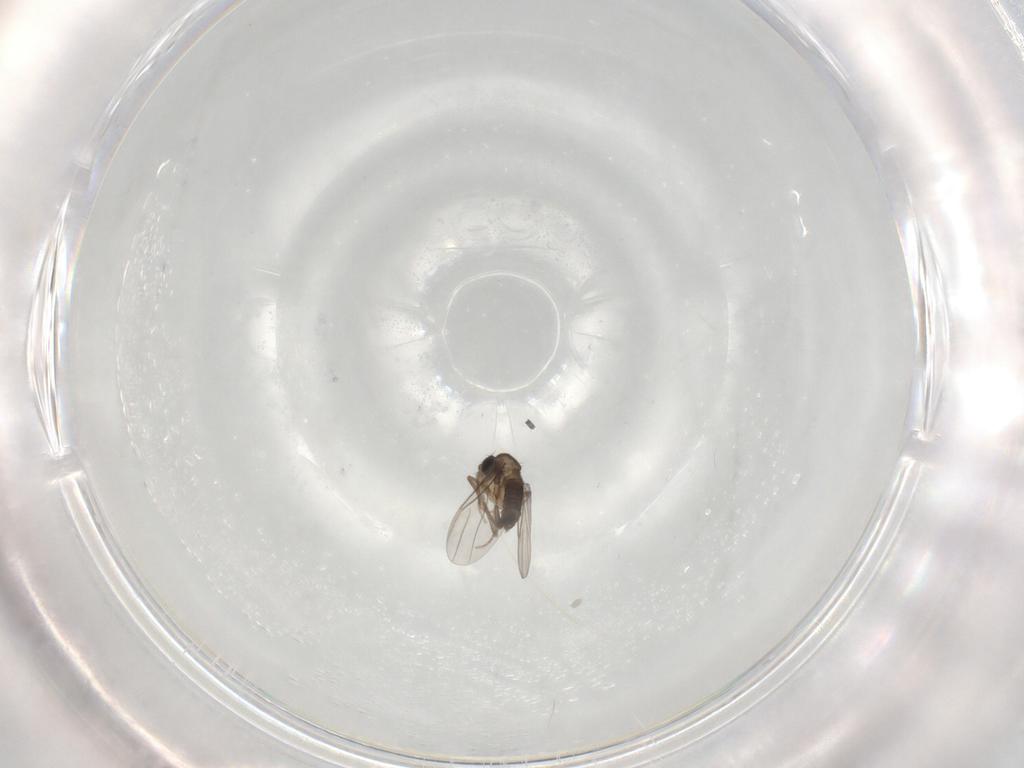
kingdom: Animalia
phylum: Arthropoda
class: Insecta
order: Diptera
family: Phoridae
